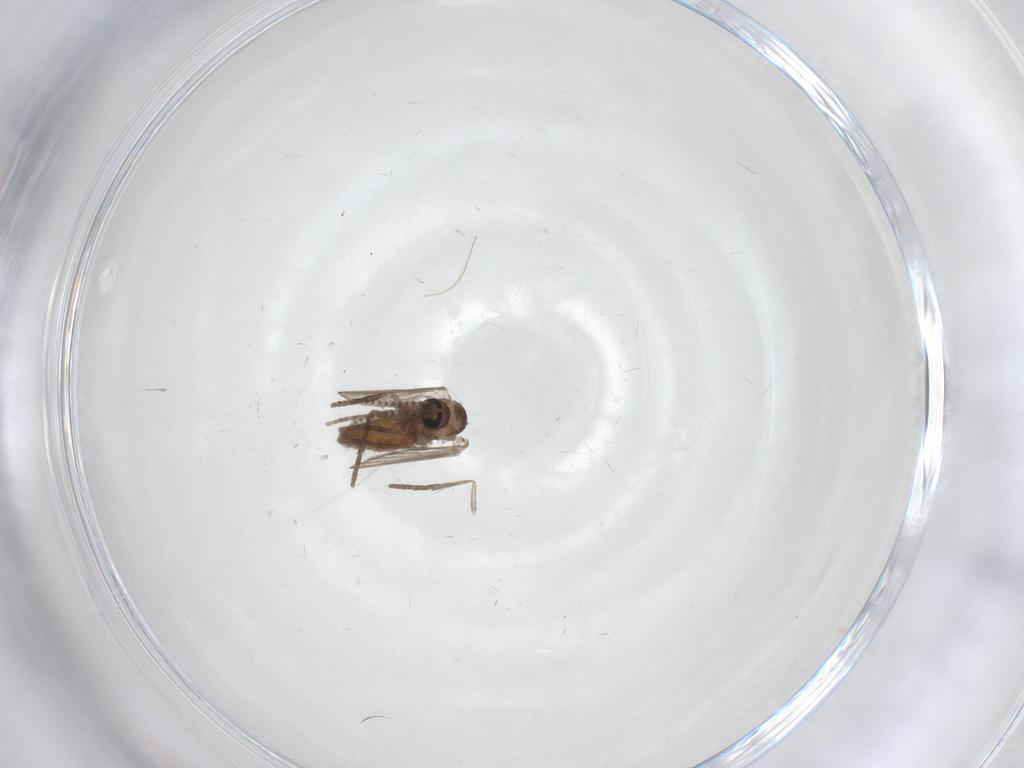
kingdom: Animalia
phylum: Arthropoda
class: Insecta
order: Diptera
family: Psychodidae
